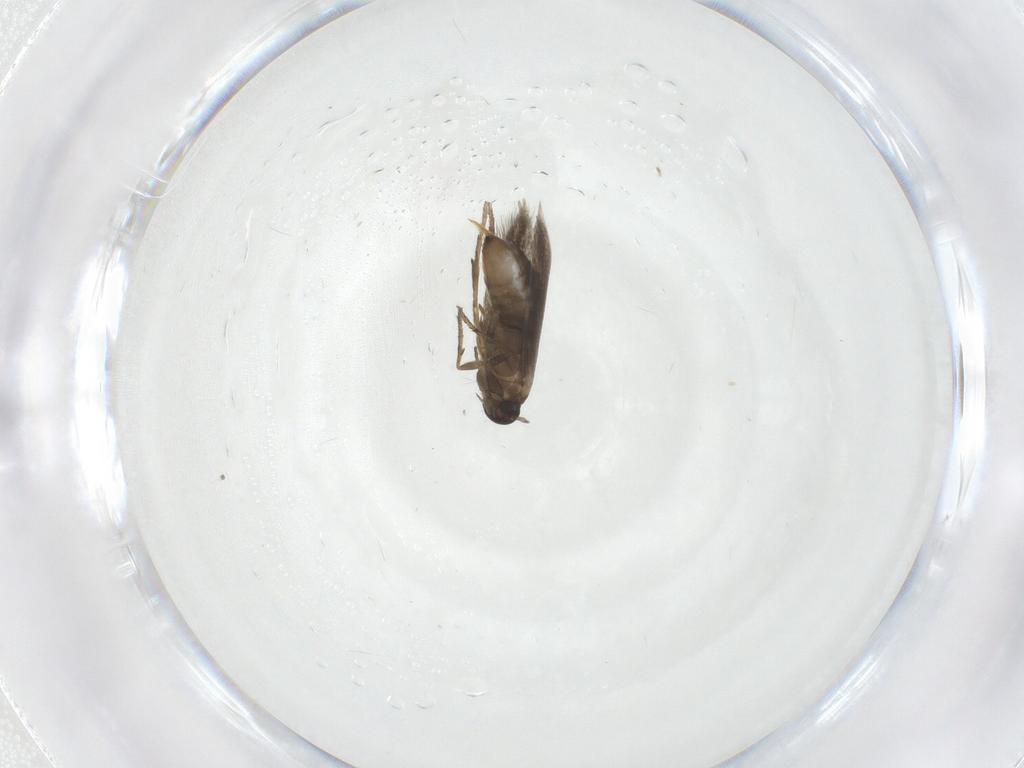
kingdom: Animalia
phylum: Arthropoda
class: Insecta
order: Lepidoptera
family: Heliozelidae
